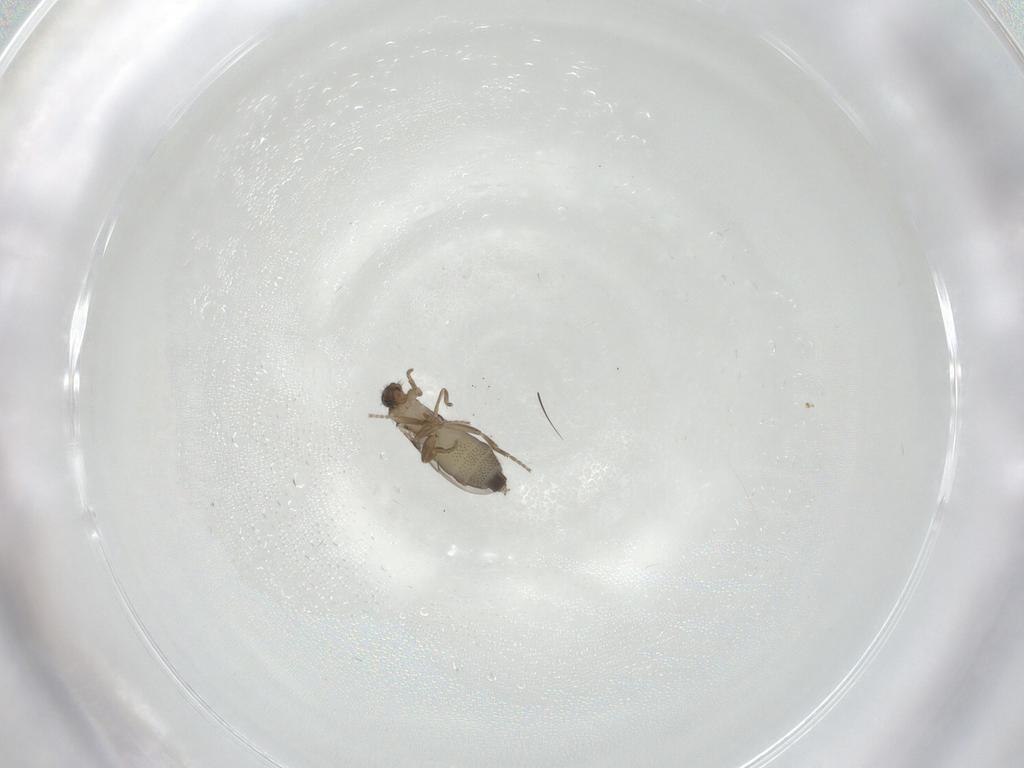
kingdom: Animalia
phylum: Arthropoda
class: Insecta
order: Diptera
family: Phoridae
